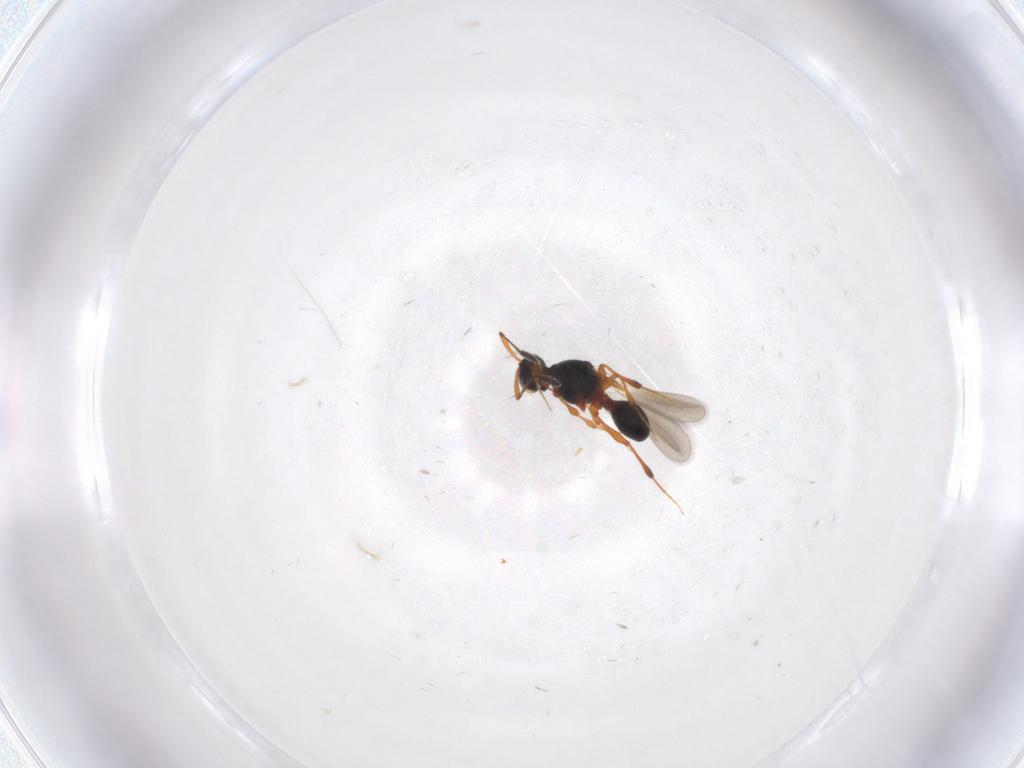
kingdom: Animalia
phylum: Arthropoda
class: Insecta
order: Hymenoptera
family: Platygastridae
